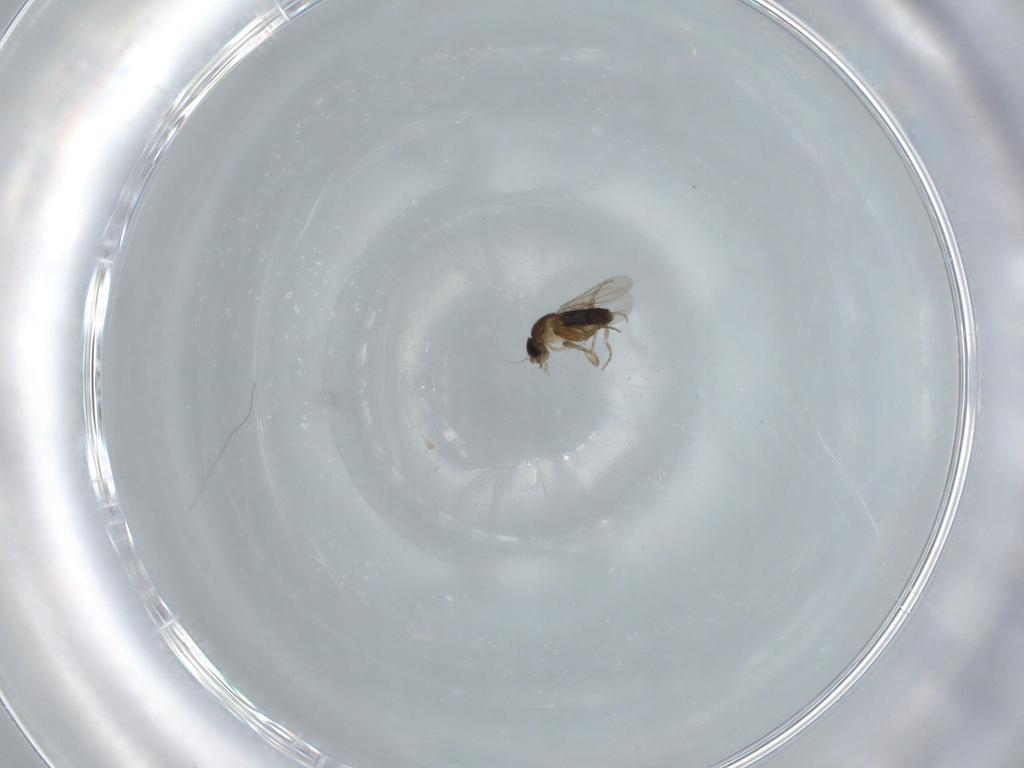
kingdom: Animalia
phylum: Arthropoda
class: Insecta
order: Diptera
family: Phoridae
